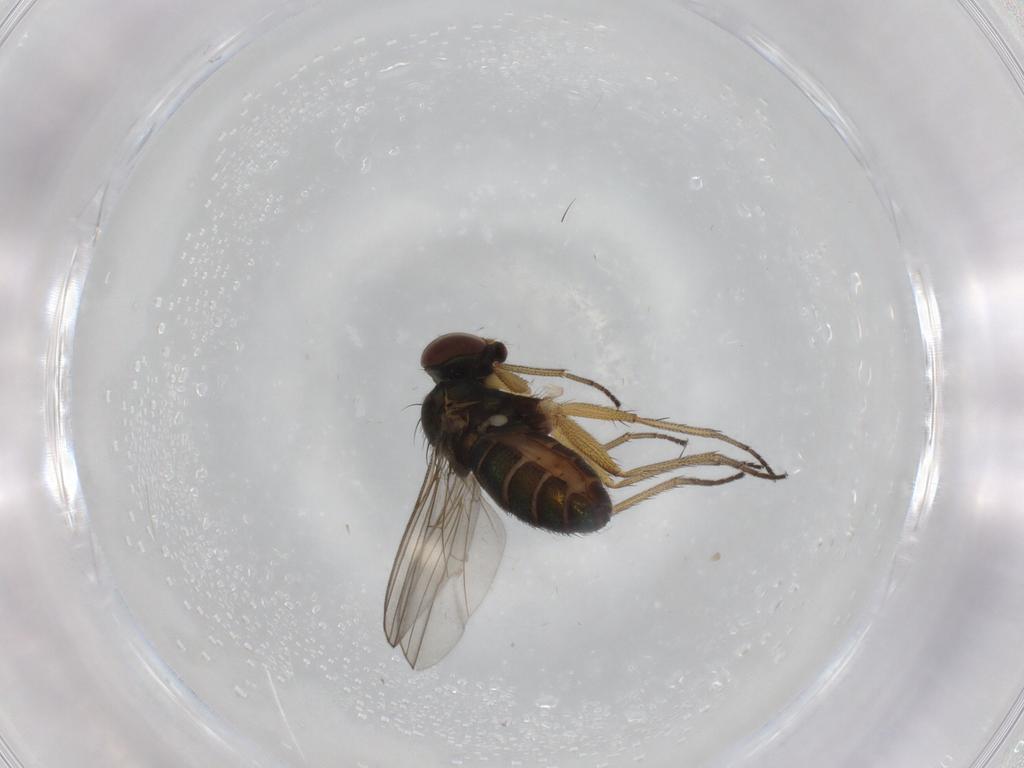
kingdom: Animalia
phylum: Arthropoda
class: Insecta
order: Diptera
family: Dolichopodidae
